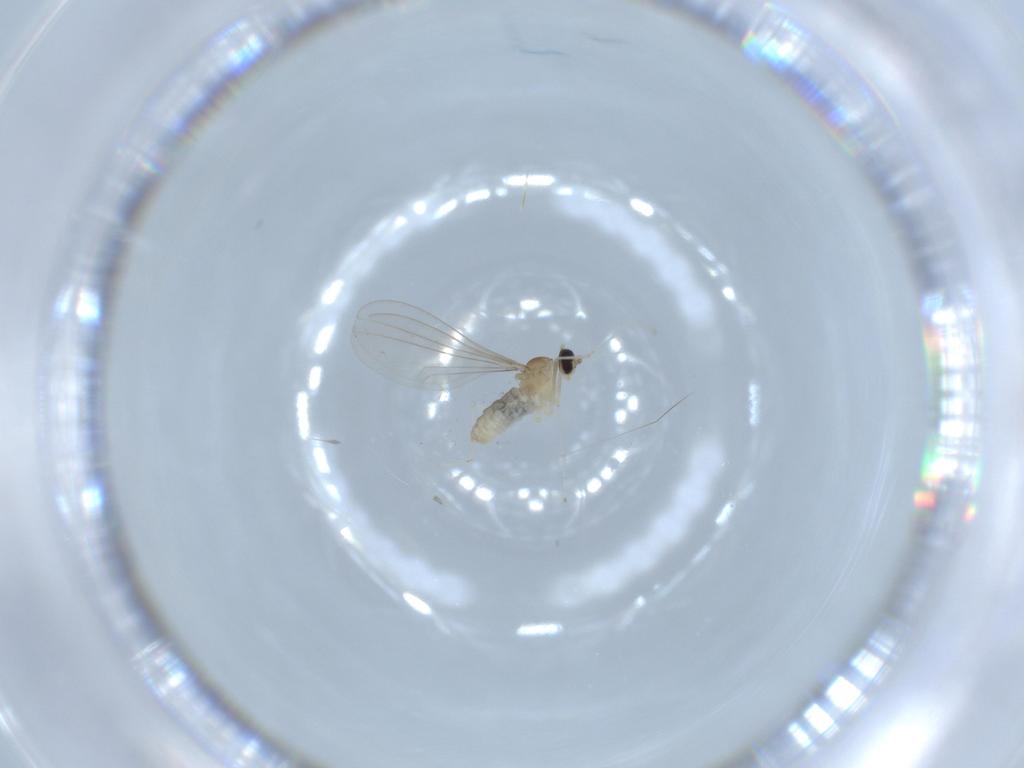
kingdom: Animalia
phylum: Arthropoda
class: Insecta
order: Diptera
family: Cecidomyiidae
